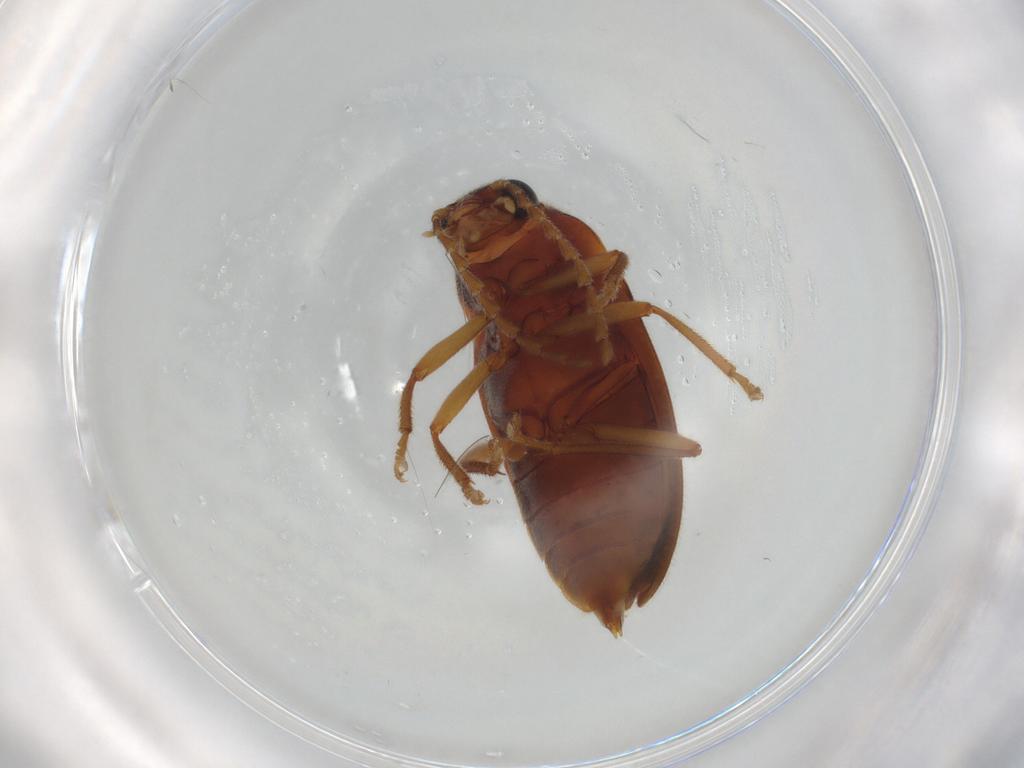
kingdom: Animalia
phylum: Arthropoda
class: Insecta
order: Coleoptera
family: Ptilodactylidae
